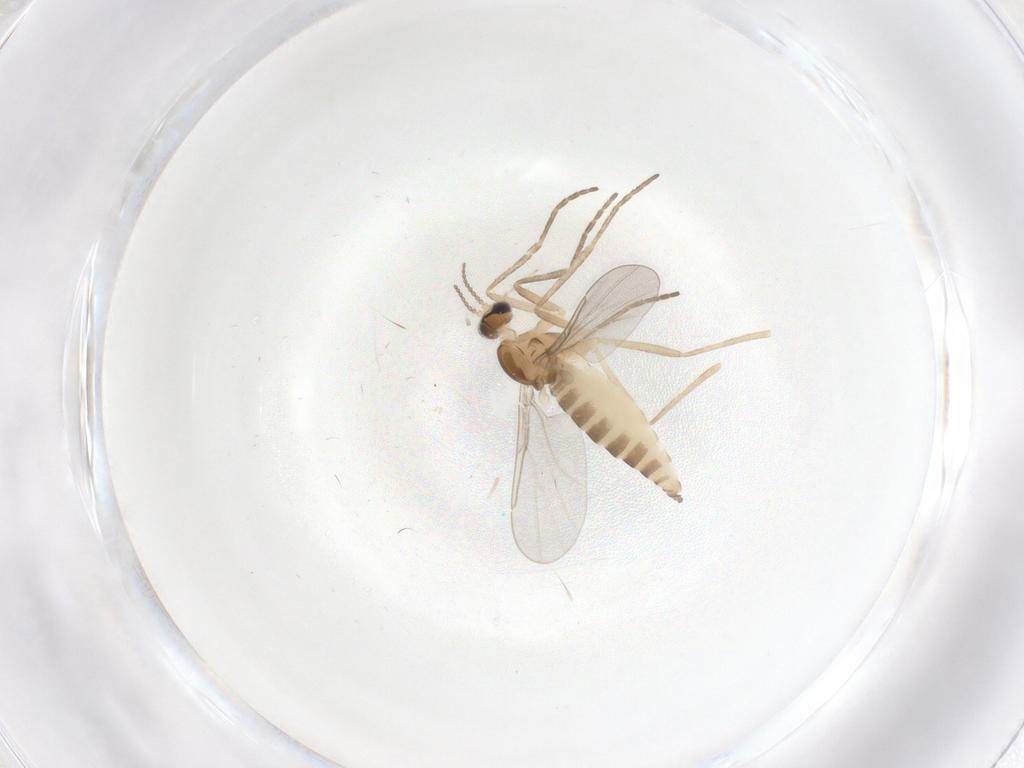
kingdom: Animalia
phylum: Arthropoda
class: Insecta
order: Diptera
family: Cecidomyiidae
